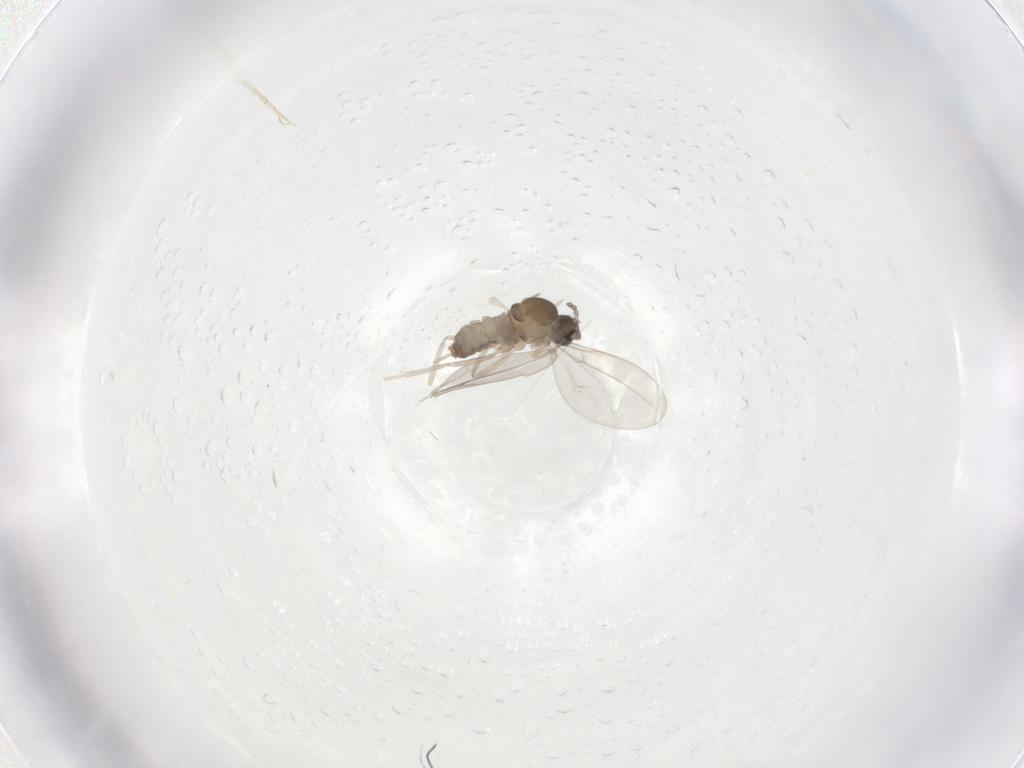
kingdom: Animalia
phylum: Arthropoda
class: Insecta
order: Diptera
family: Cecidomyiidae
